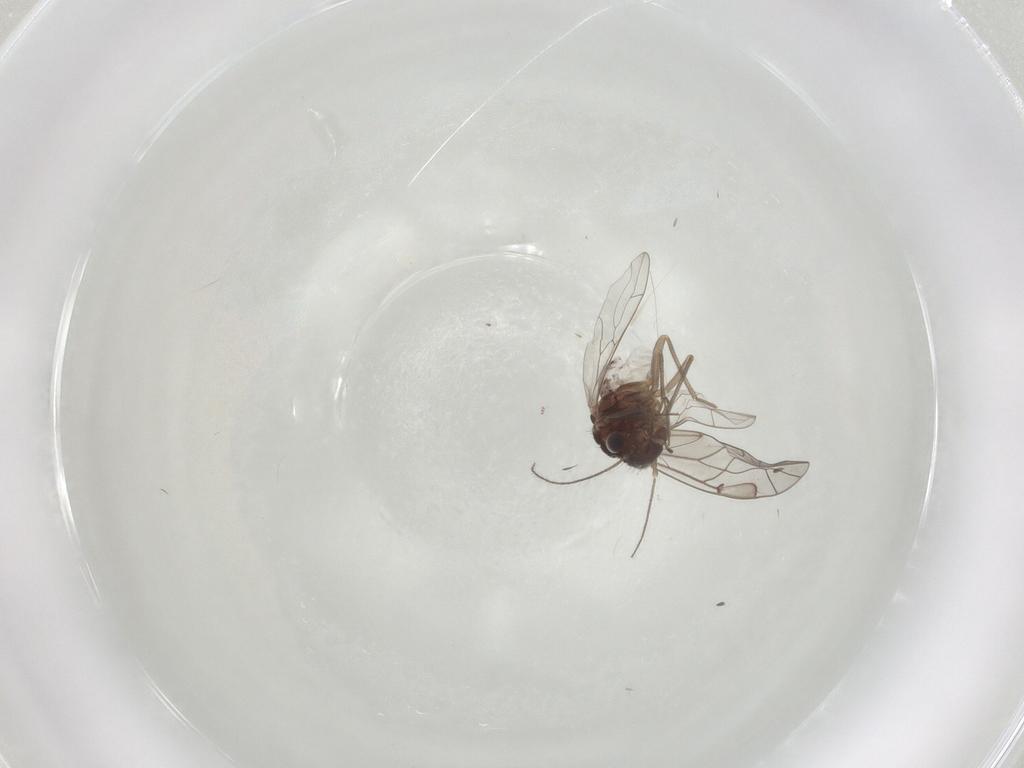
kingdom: Animalia
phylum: Arthropoda
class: Insecta
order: Psocodea
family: Lachesillidae
